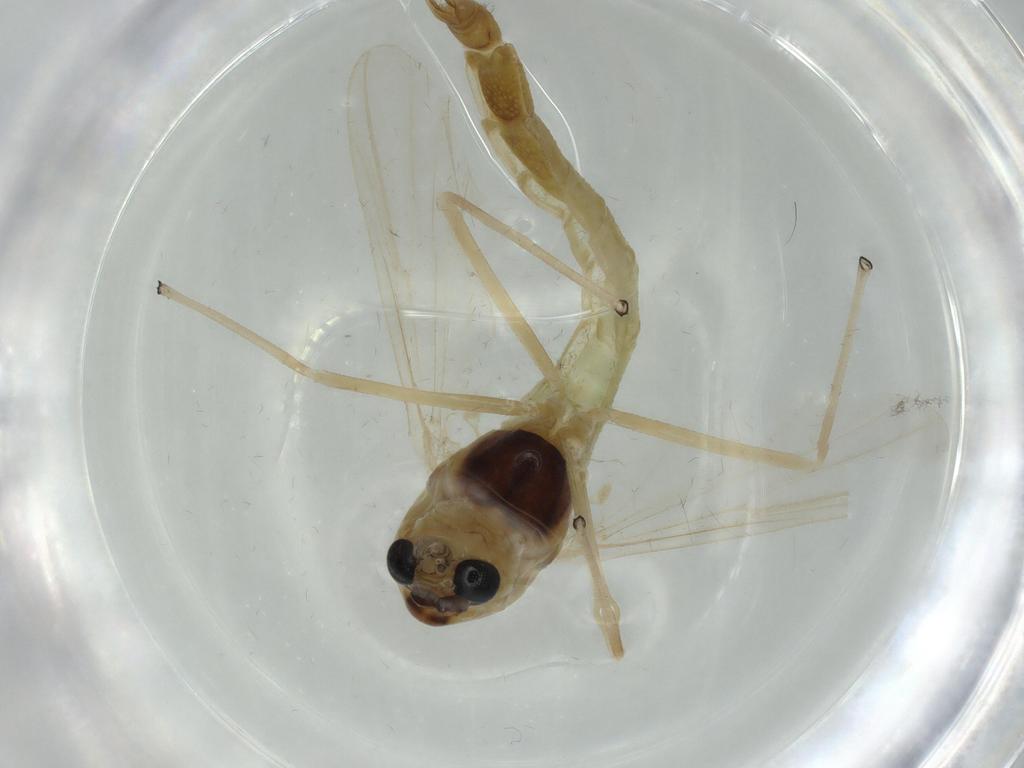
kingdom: Animalia
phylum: Arthropoda
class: Insecta
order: Diptera
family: Chironomidae
